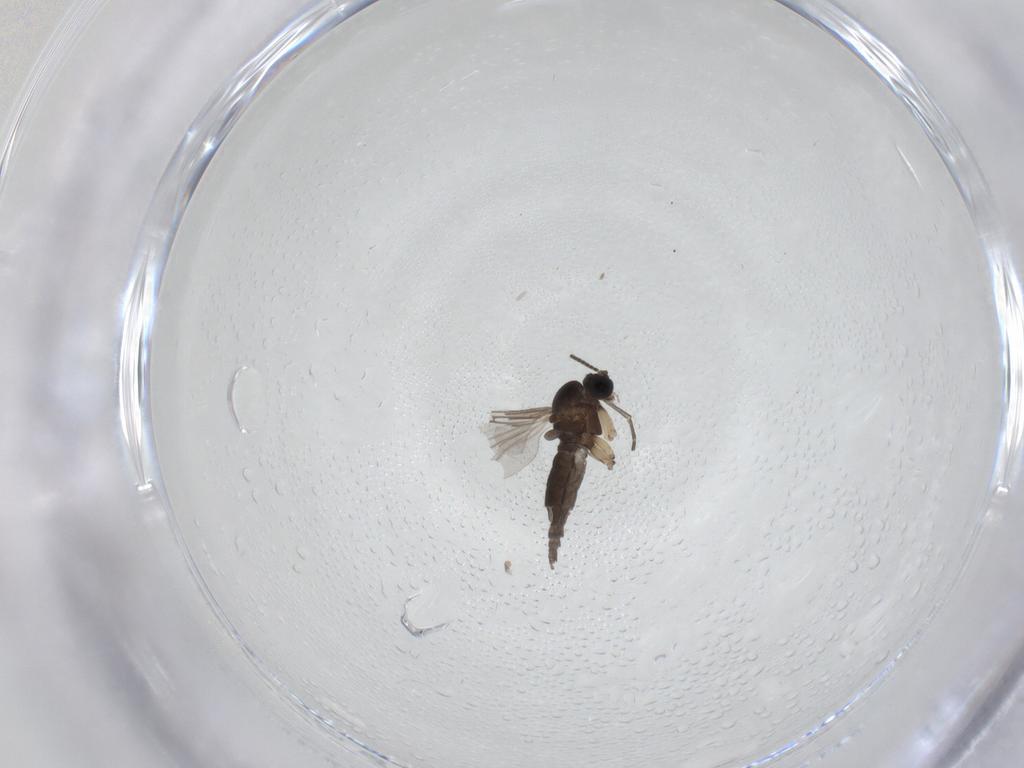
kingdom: Animalia
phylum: Arthropoda
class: Insecta
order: Diptera
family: Sciaridae
